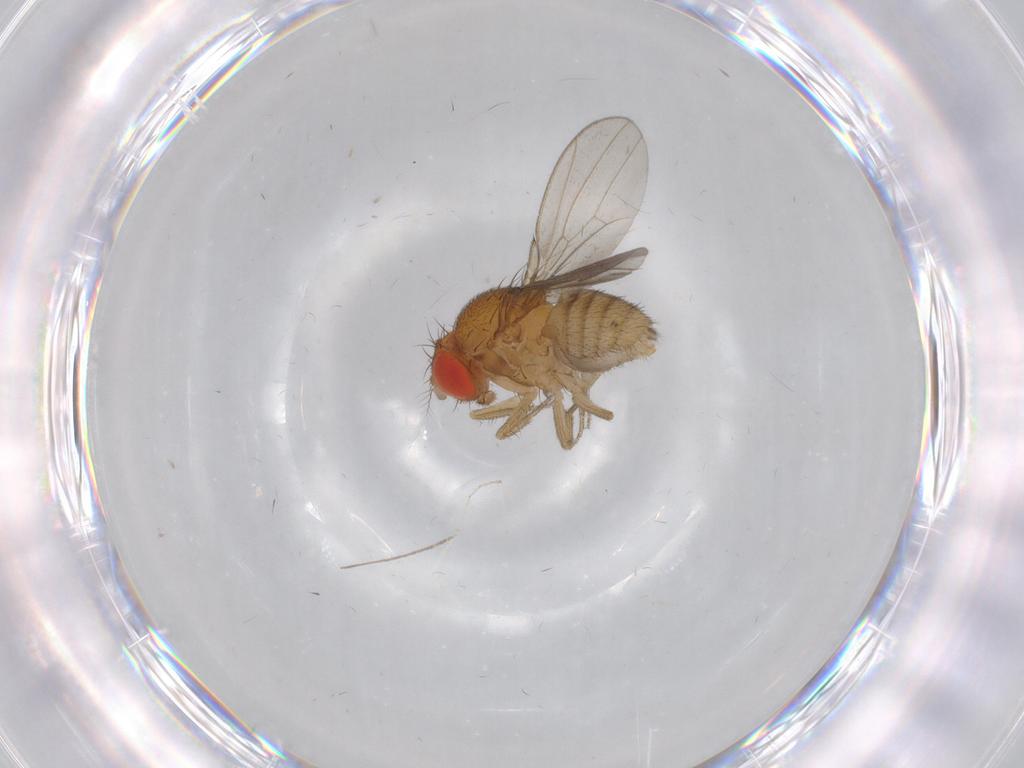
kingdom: Animalia
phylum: Arthropoda
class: Insecta
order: Diptera
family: Drosophilidae
